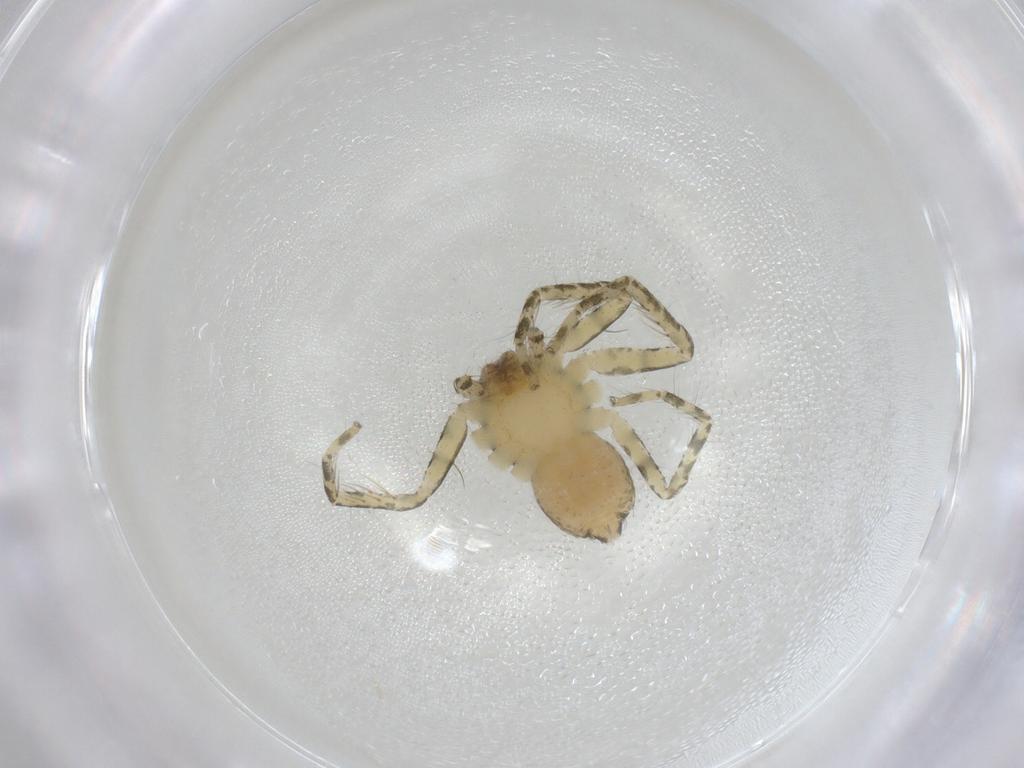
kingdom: Animalia
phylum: Arthropoda
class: Arachnida
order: Araneae
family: Selenopidae
